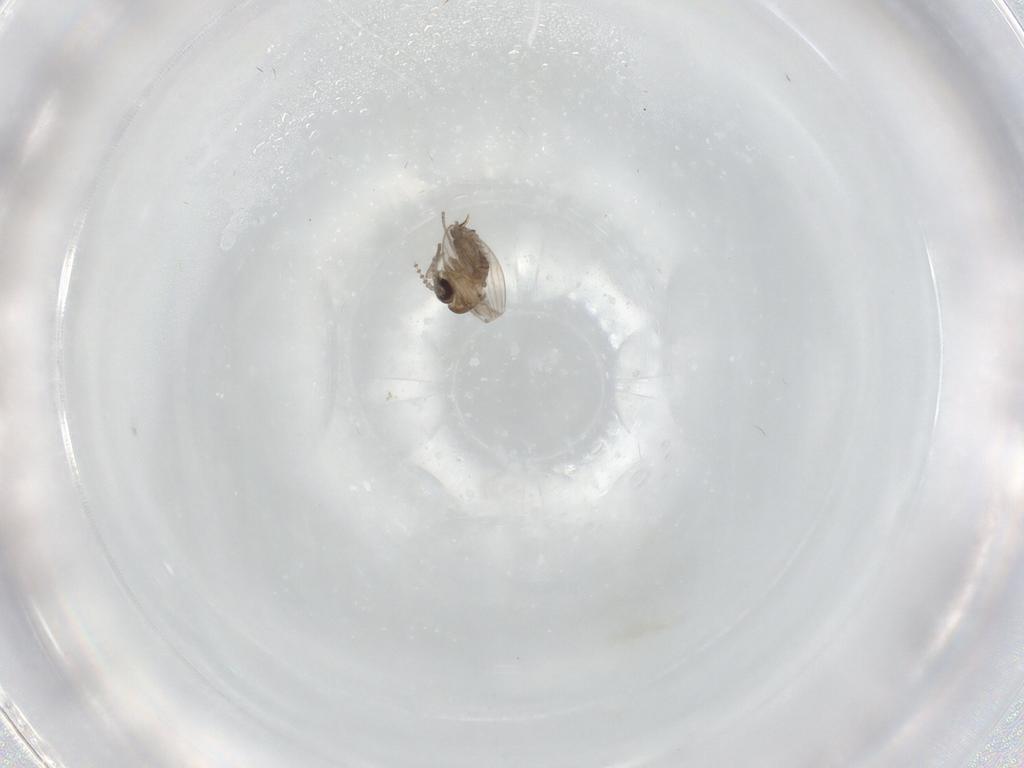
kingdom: Animalia
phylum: Arthropoda
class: Insecta
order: Diptera
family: Psychodidae
